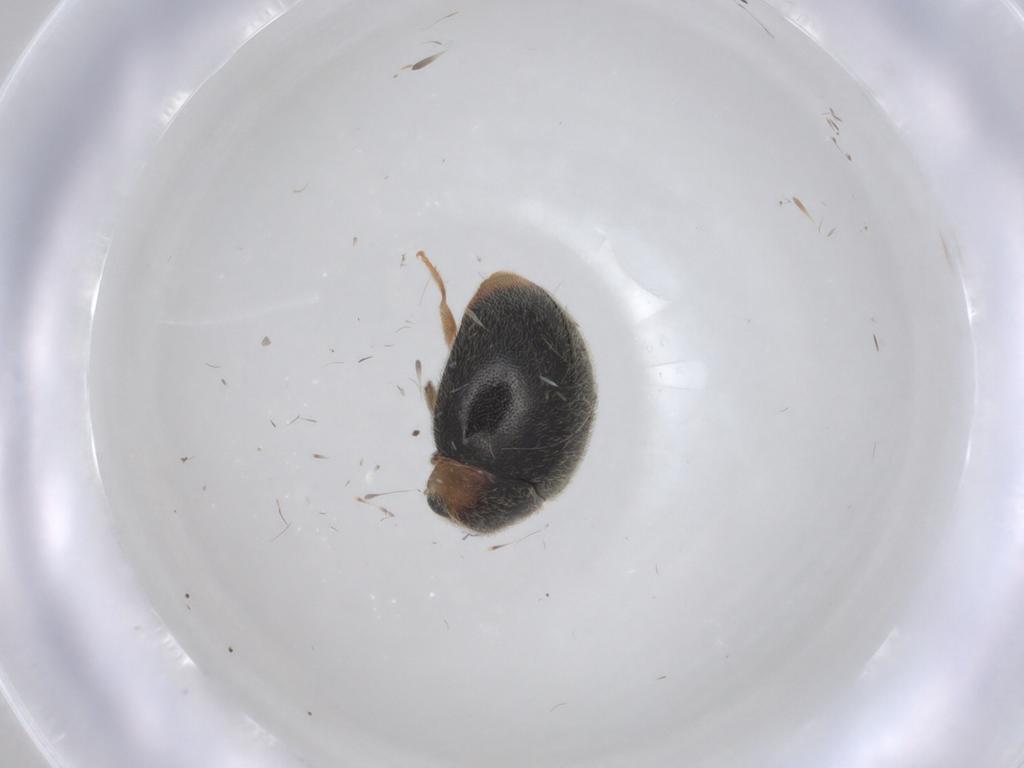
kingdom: Animalia
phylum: Arthropoda
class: Insecta
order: Coleoptera
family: Coccinellidae
